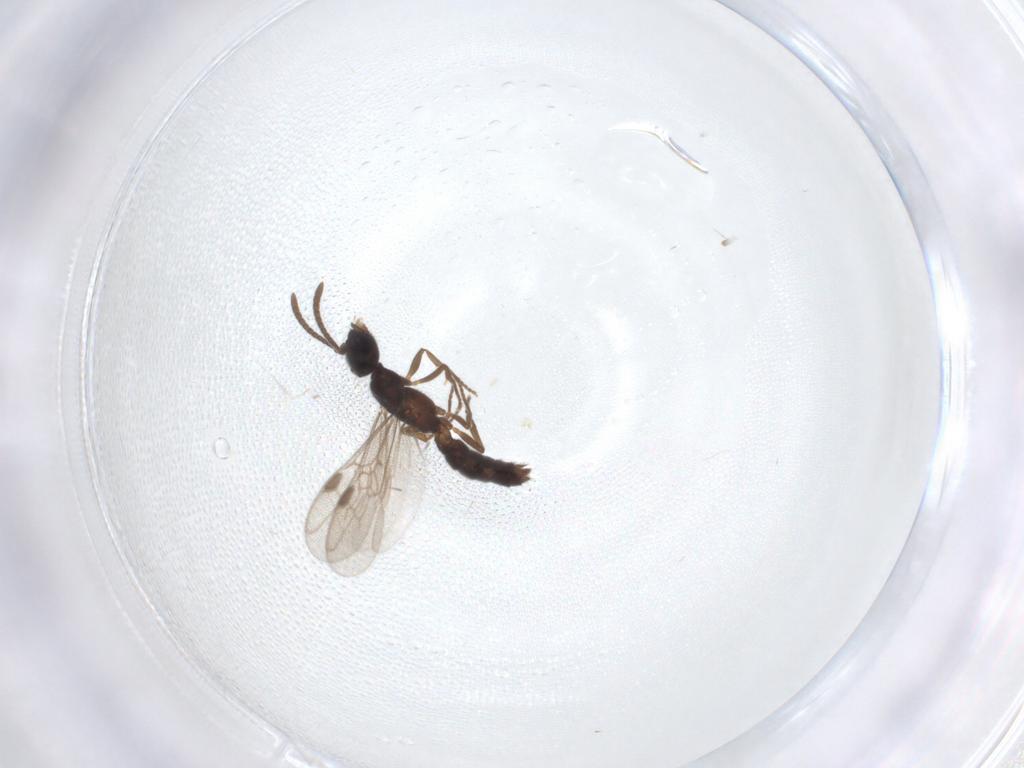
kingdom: Animalia
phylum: Arthropoda
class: Insecta
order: Hymenoptera
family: Formicidae
